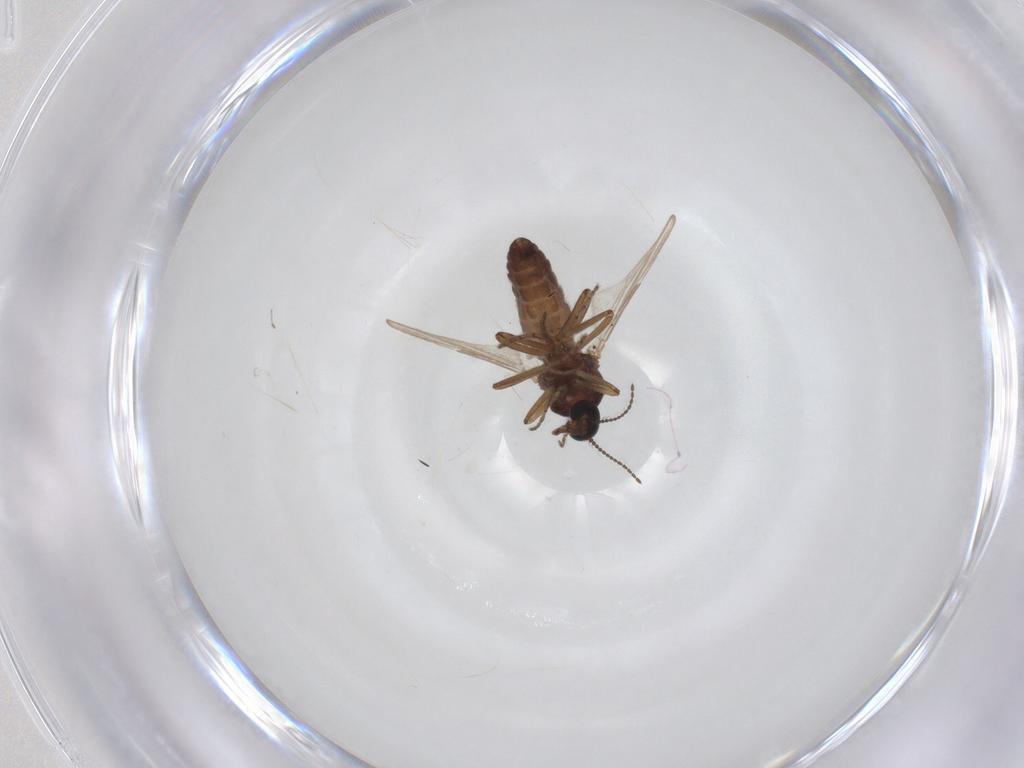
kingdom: Animalia
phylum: Arthropoda
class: Insecta
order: Diptera
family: Ceratopogonidae
